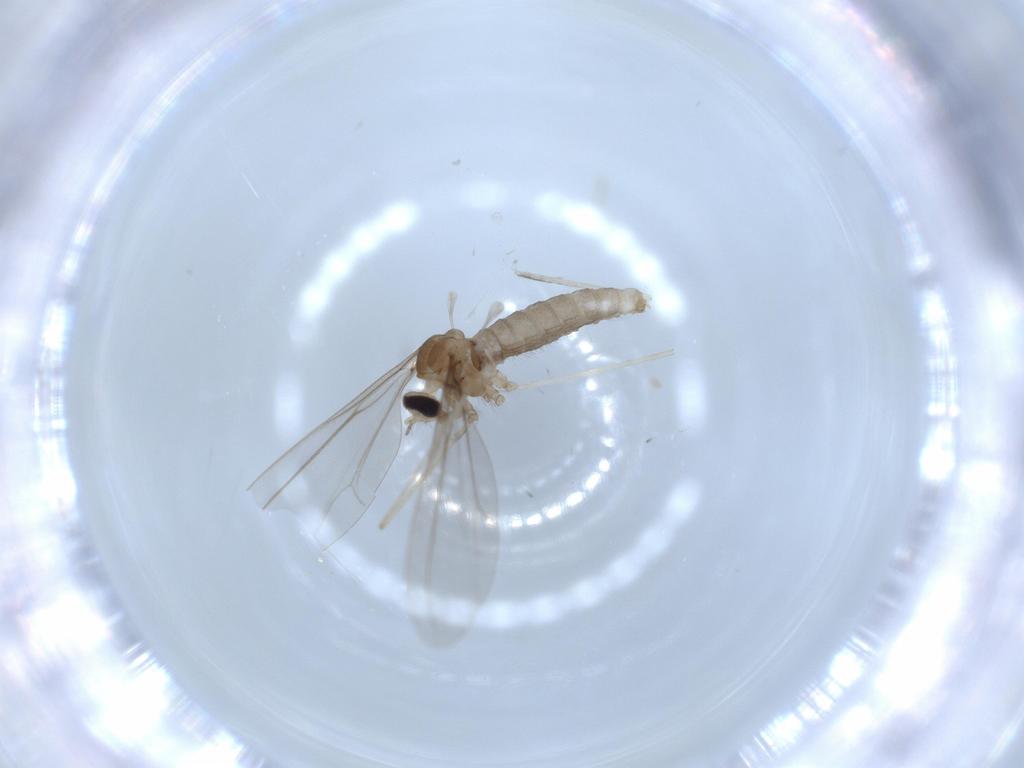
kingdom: Animalia
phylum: Arthropoda
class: Insecta
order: Diptera
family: Cecidomyiidae
